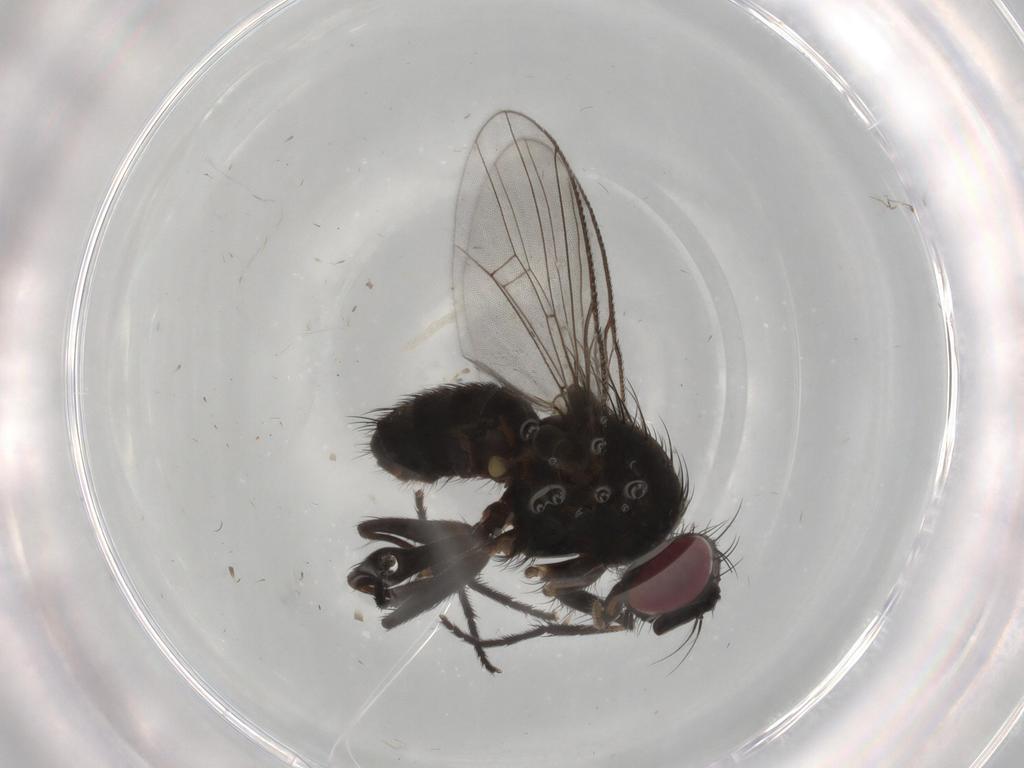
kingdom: Animalia
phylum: Arthropoda
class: Insecta
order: Diptera
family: Muscidae
